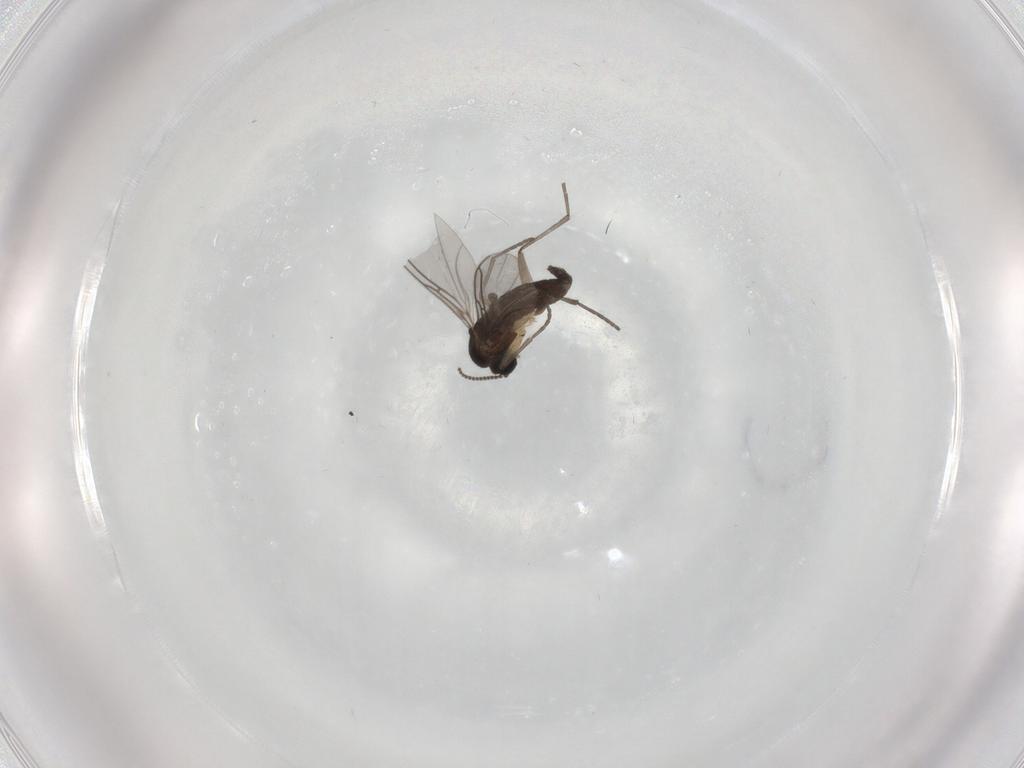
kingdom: Animalia
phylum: Arthropoda
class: Insecta
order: Diptera
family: Sciaridae
